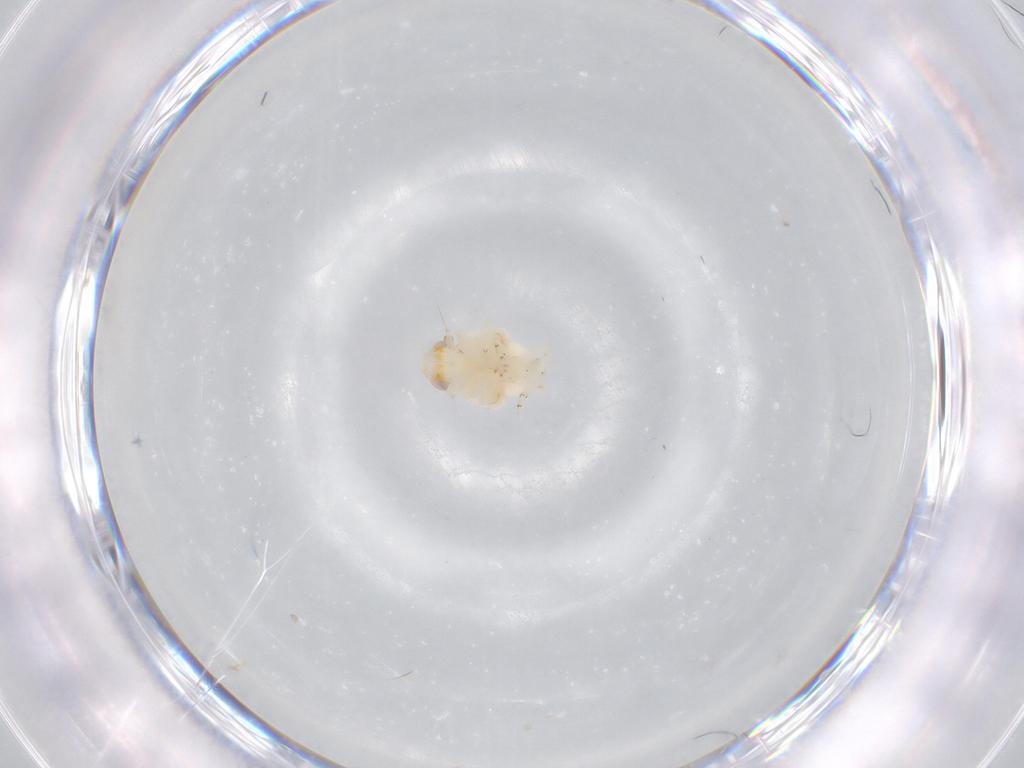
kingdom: Animalia
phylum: Arthropoda
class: Insecta
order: Hemiptera
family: Nogodinidae
